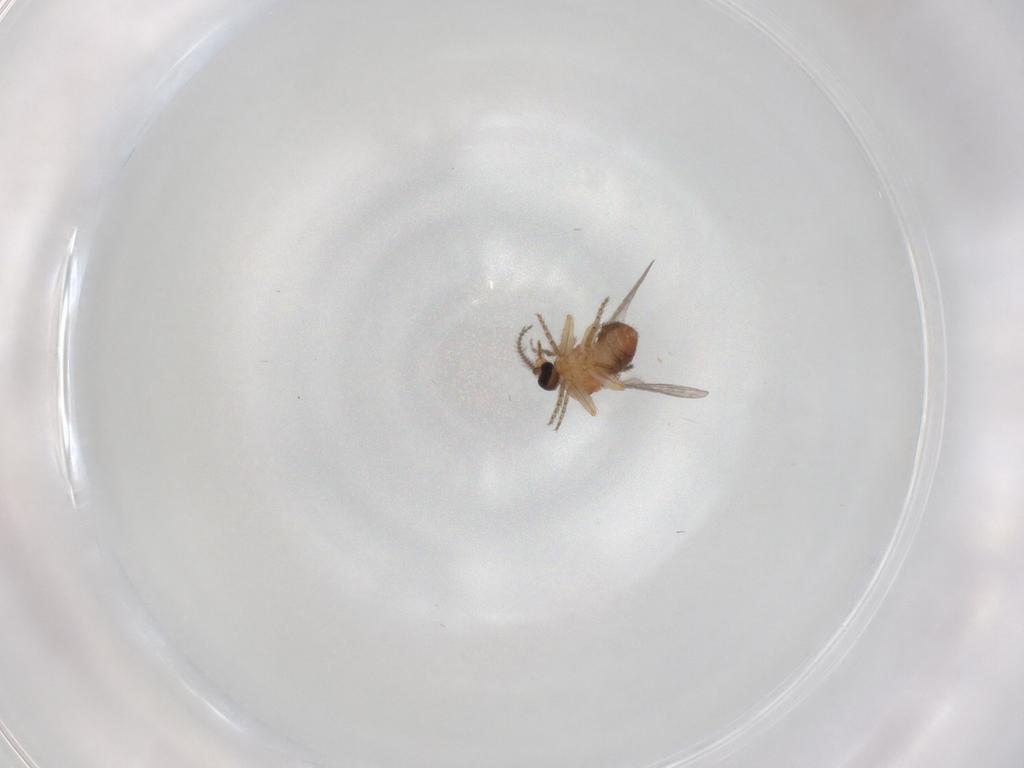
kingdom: Animalia
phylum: Arthropoda
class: Insecta
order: Diptera
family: Ceratopogonidae
